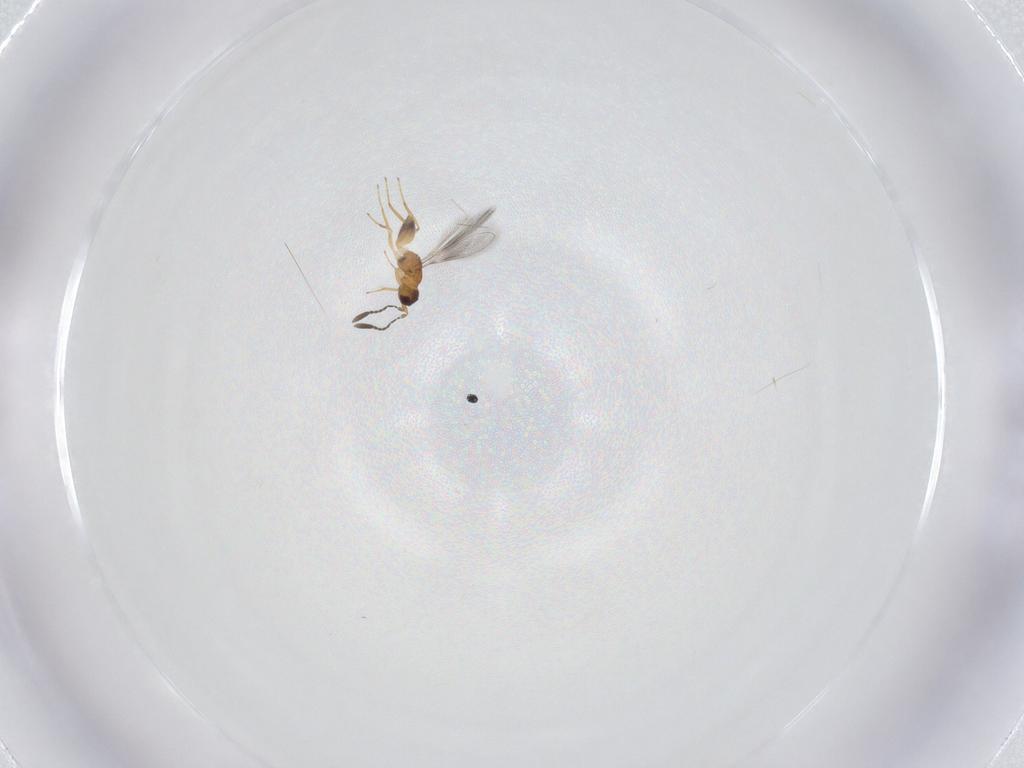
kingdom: Animalia
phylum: Arthropoda
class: Insecta
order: Hymenoptera
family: Mymaridae
